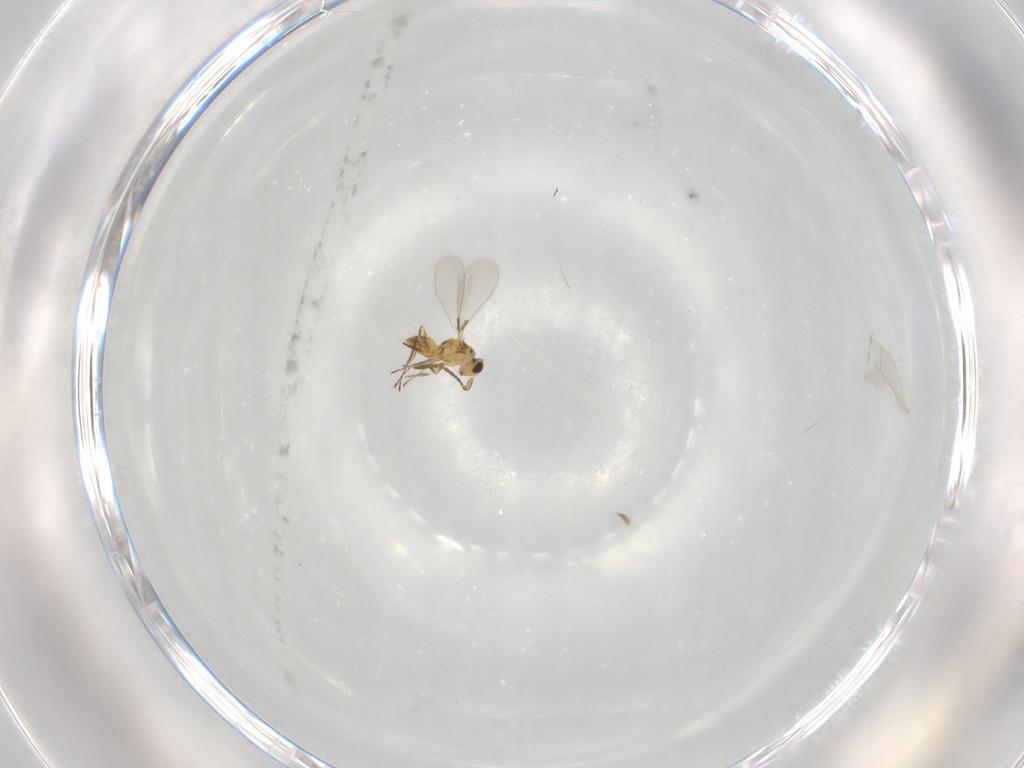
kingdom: Animalia
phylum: Arthropoda
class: Insecta
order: Hymenoptera
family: Mymaridae
